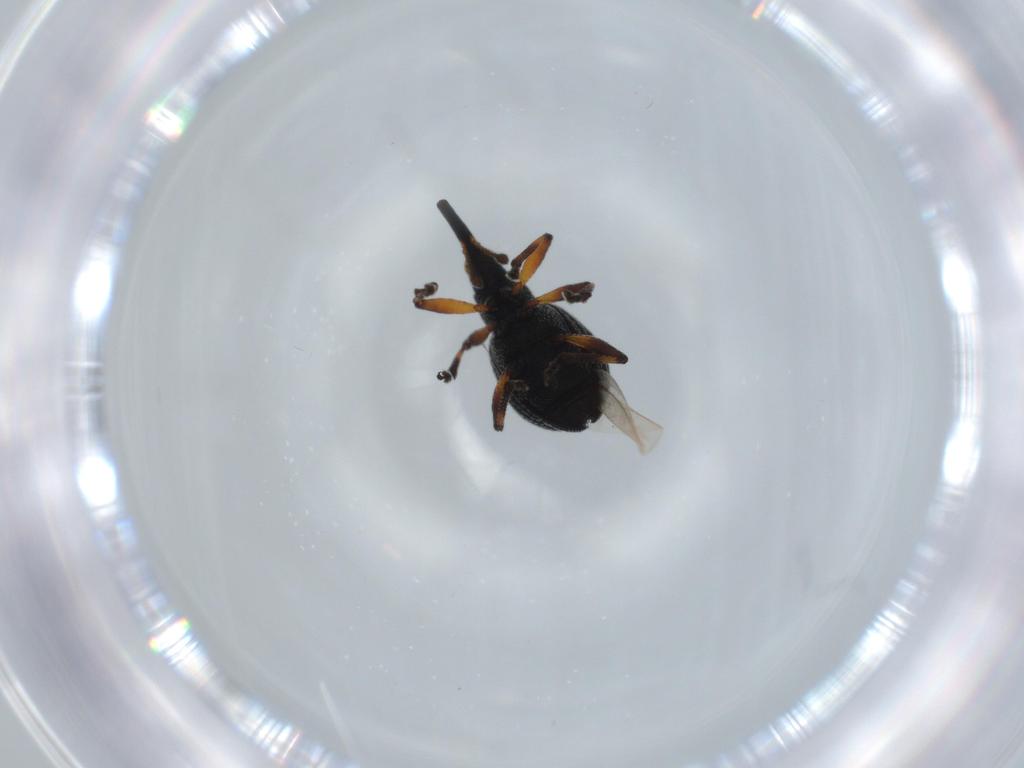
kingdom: Animalia
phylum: Arthropoda
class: Insecta
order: Coleoptera
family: Brentidae
